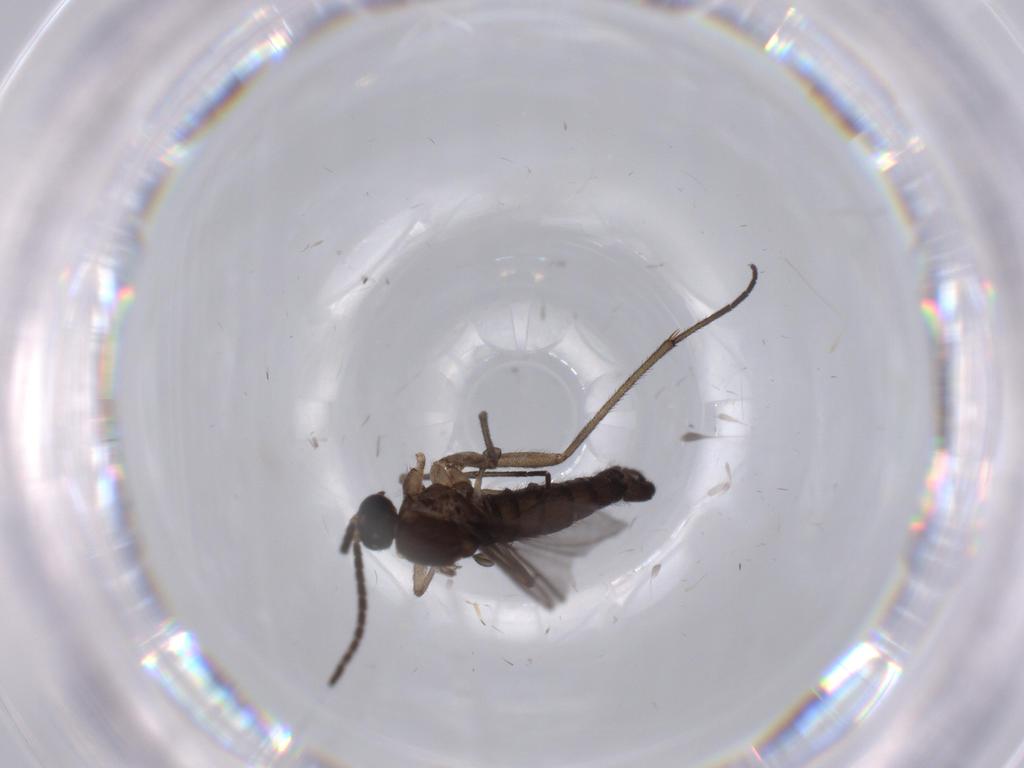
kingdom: Animalia
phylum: Arthropoda
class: Insecta
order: Diptera
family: Sciaridae
